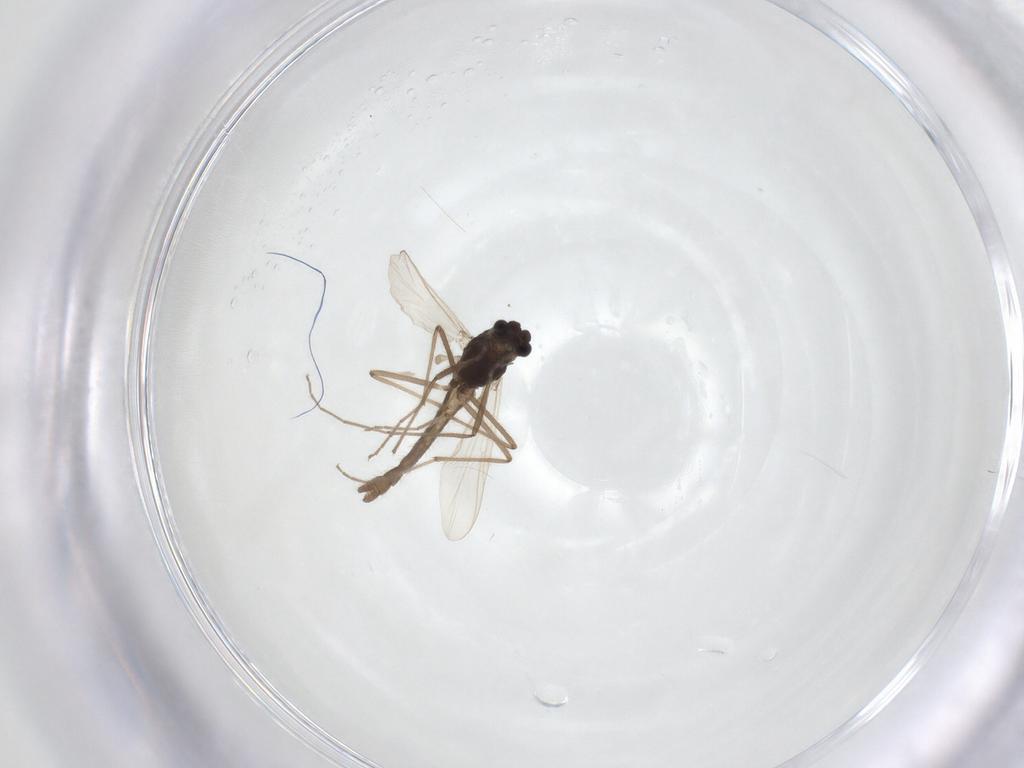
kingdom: Animalia
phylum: Arthropoda
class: Insecta
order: Diptera
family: Chironomidae
